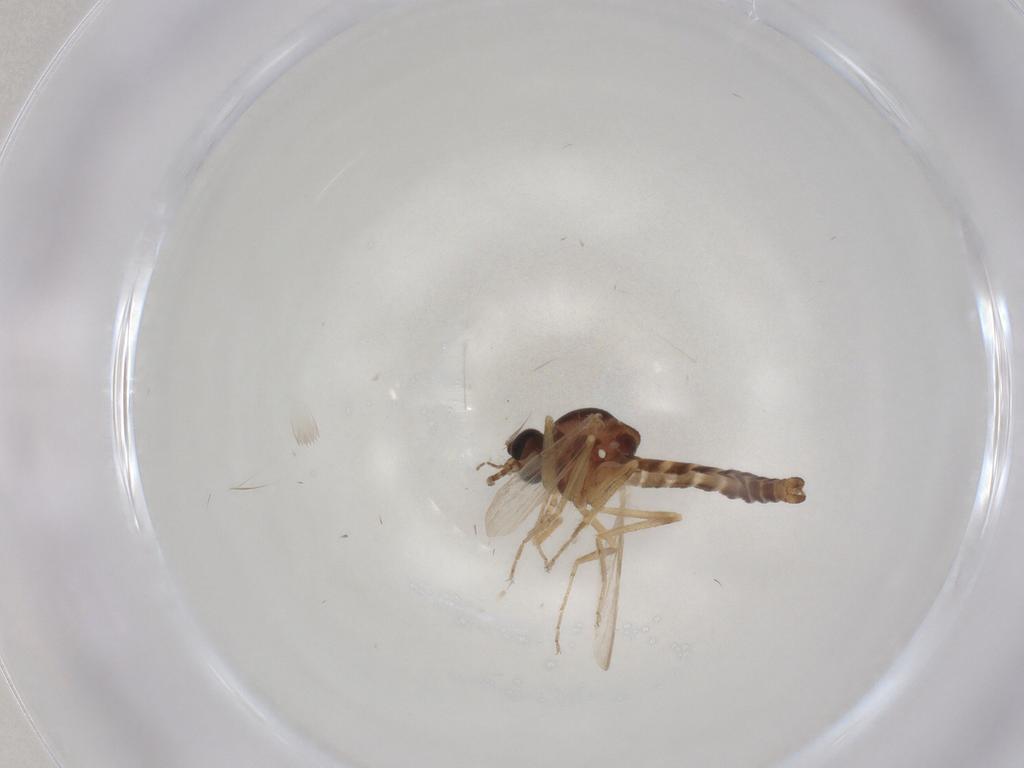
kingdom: Animalia
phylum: Arthropoda
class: Insecta
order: Diptera
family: Ceratopogonidae
